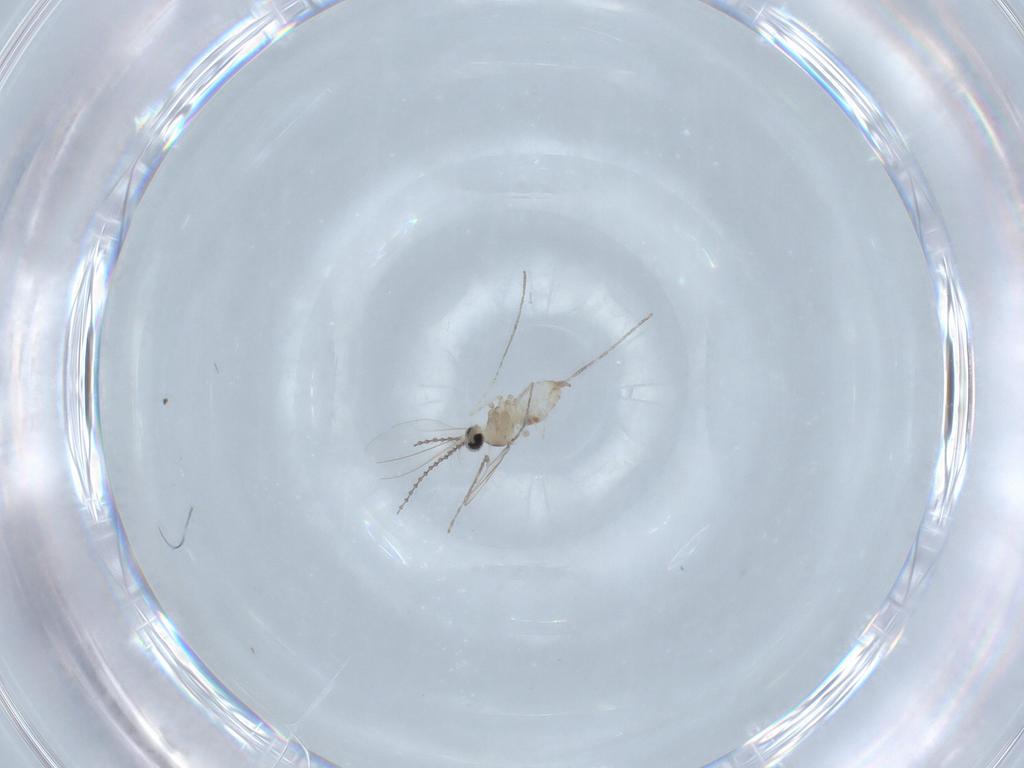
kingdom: Animalia
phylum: Arthropoda
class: Insecta
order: Diptera
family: Cecidomyiidae
